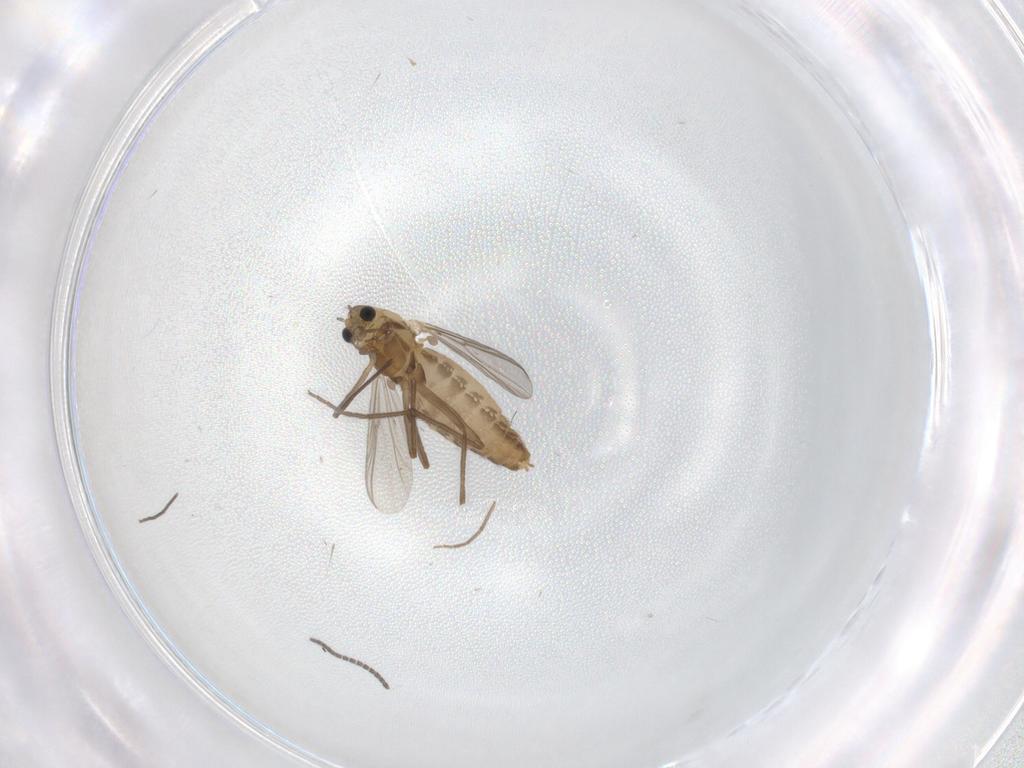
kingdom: Animalia
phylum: Arthropoda
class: Insecta
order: Diptera
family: Chironomidae
